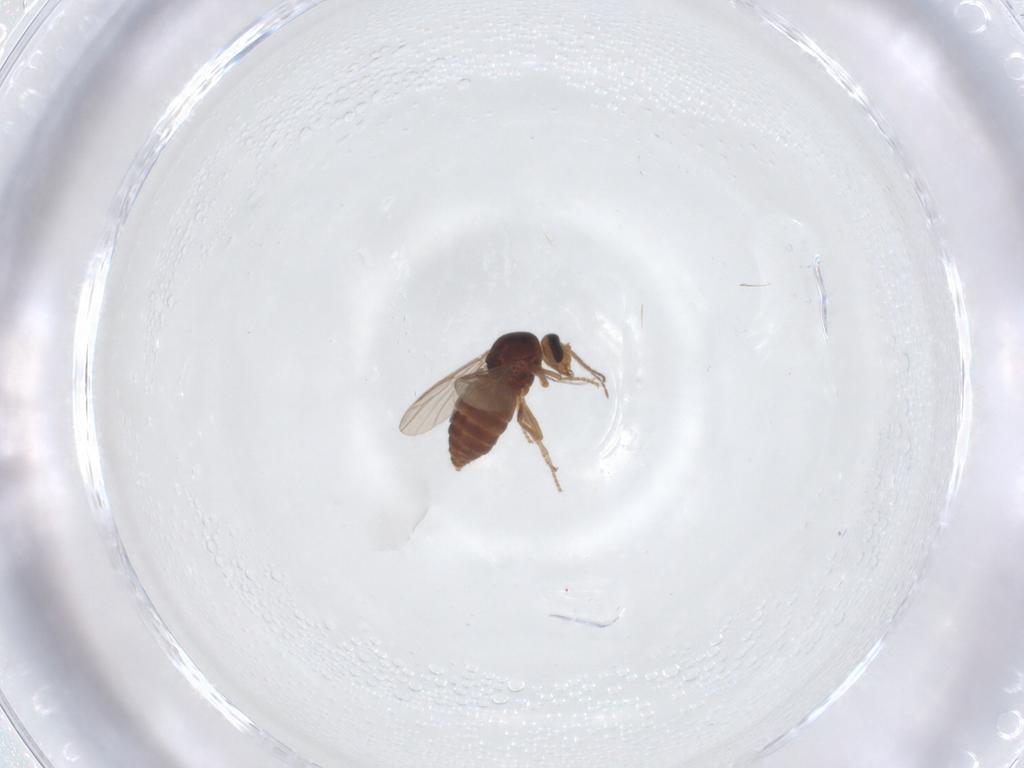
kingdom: Animalia
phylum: Arthropoda
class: Insecta
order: Diptera
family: Ceratopogonidae
